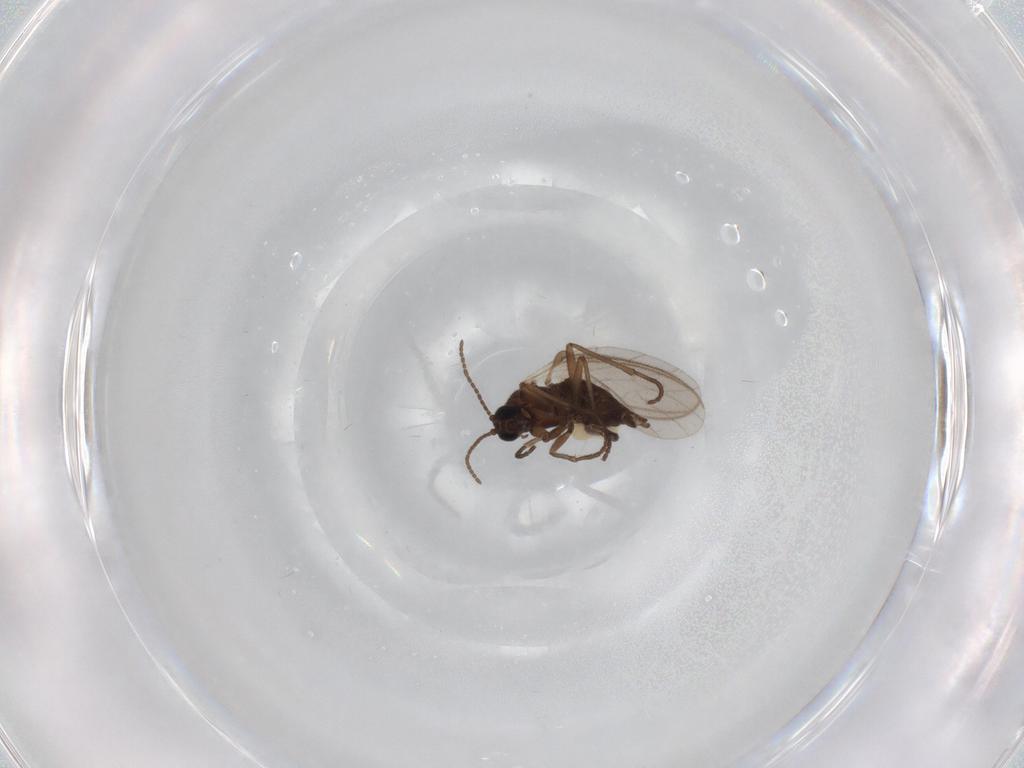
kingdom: Animalia
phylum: Arthropoda
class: Insecta
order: Diptera
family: Sciaridae
